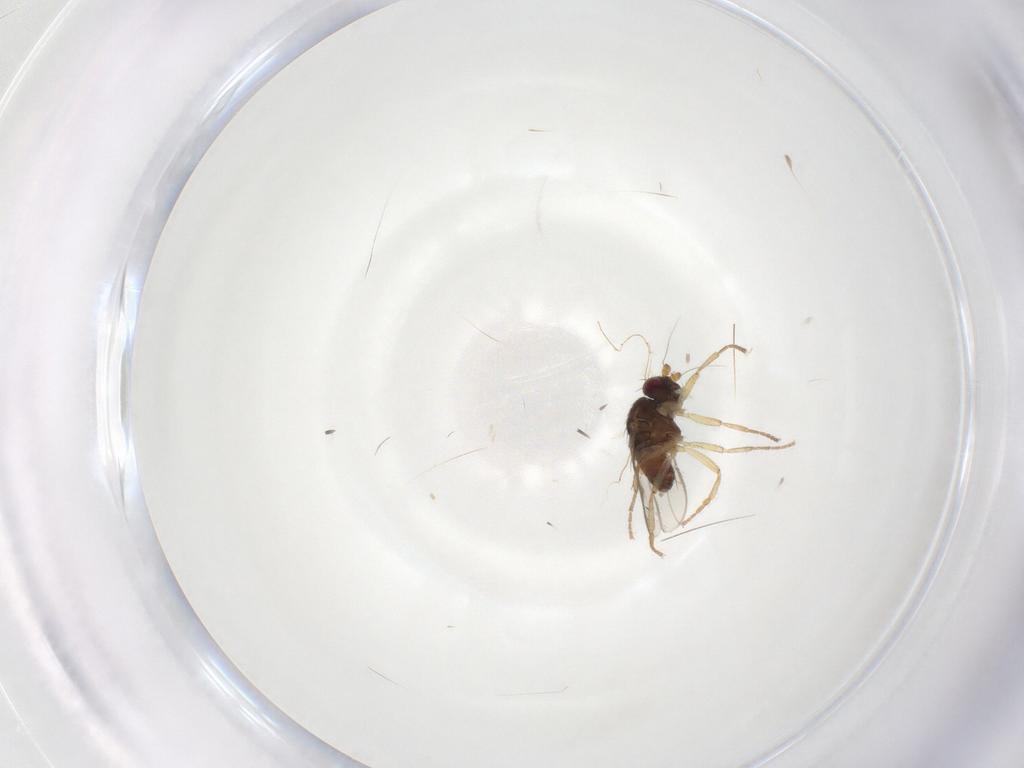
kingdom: Animalia
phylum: Arthropoda
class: Insecta
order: Diptera
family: Sphaeroceridae
